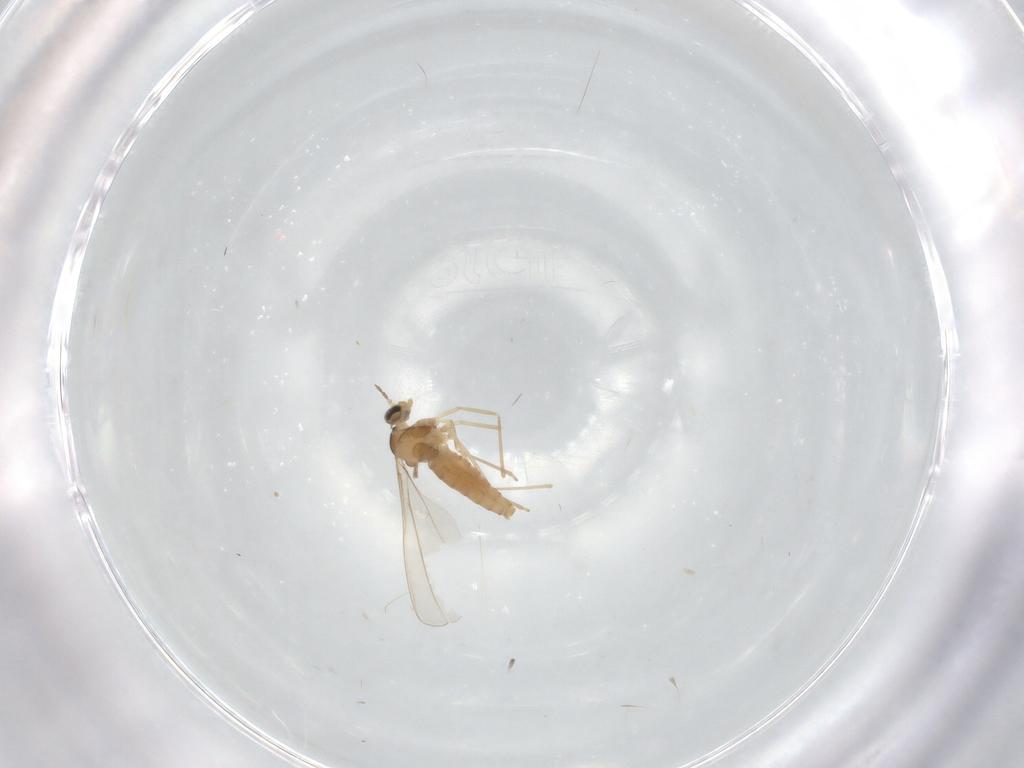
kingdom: Animalia
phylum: Arthropoda
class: Insecta
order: Diptera
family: Cecidomyiidae
